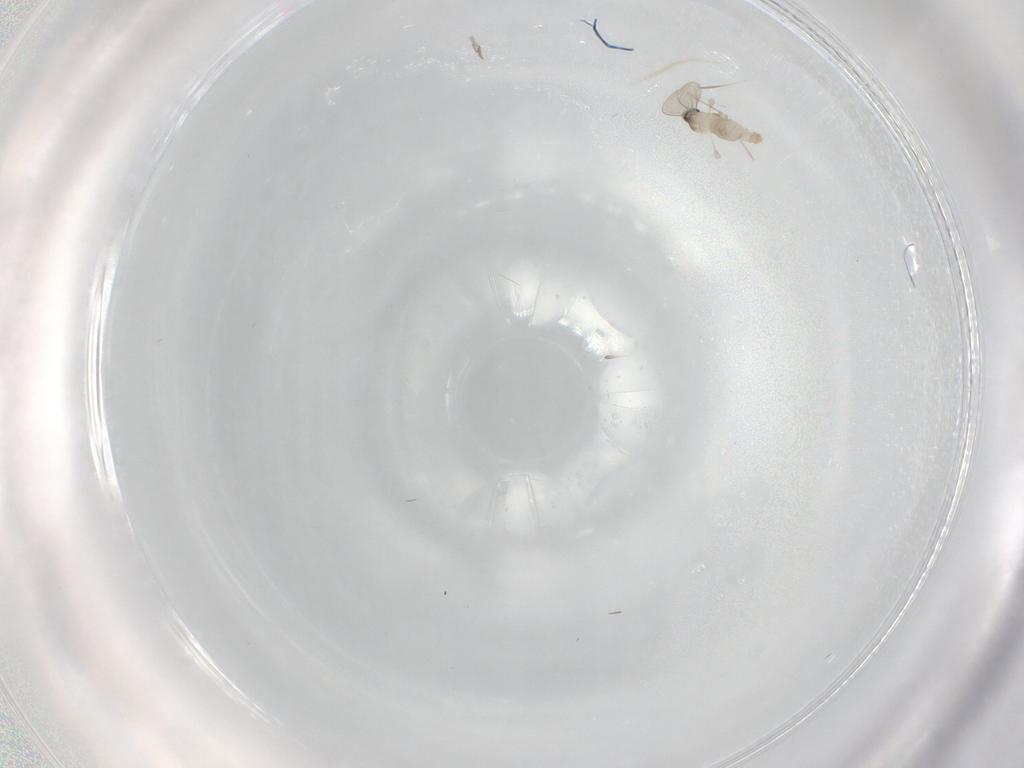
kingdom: Animalia
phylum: Arthropoda
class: Insecta
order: Diptera
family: Cecidomyiidae
